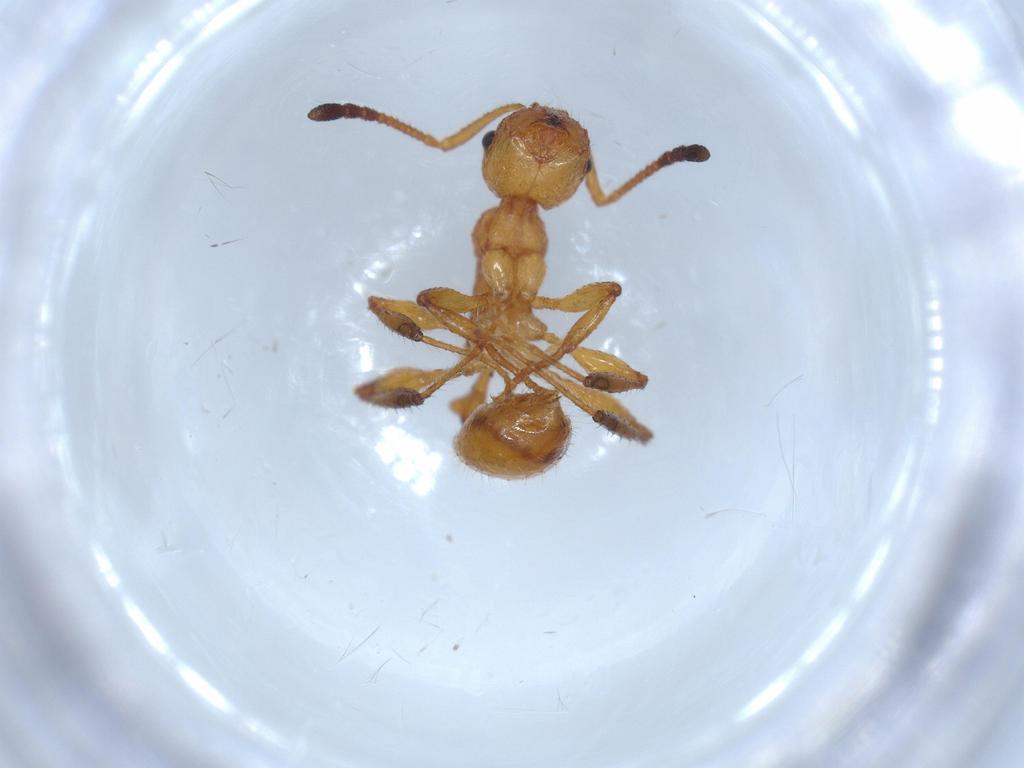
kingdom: Animalia
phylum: Arthropoda
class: Insecta
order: Hymenoptera
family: Formicidae
